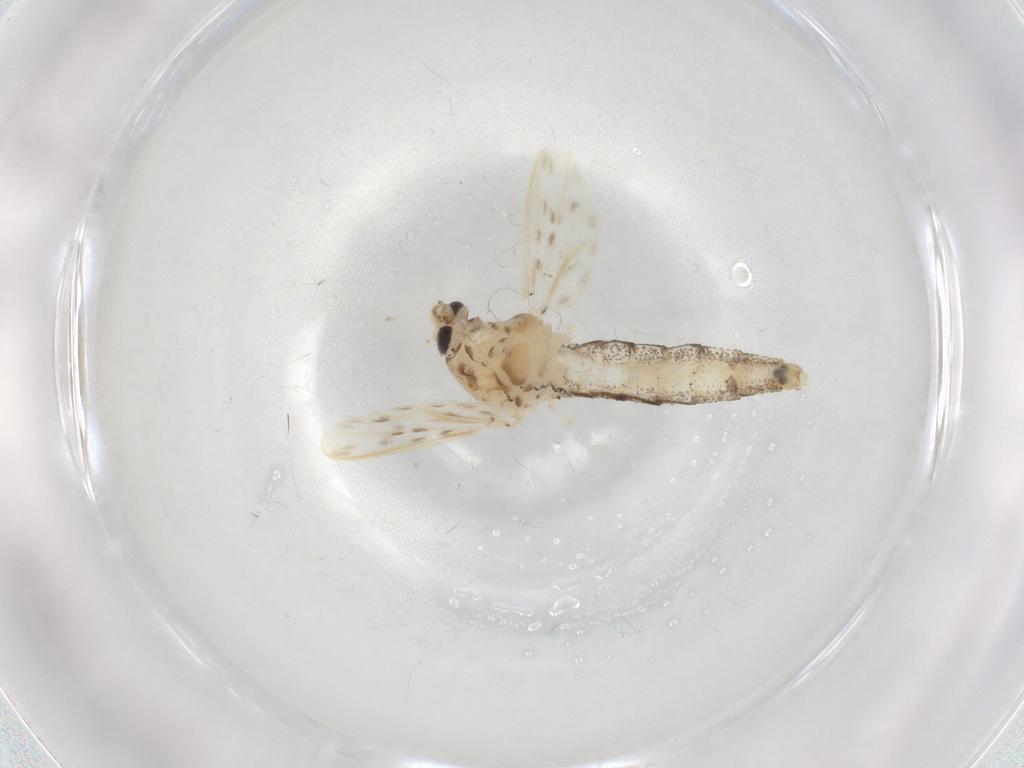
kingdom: Animalia
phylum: Arthropoda
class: Insecta
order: Diptera
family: Chaoboridae
